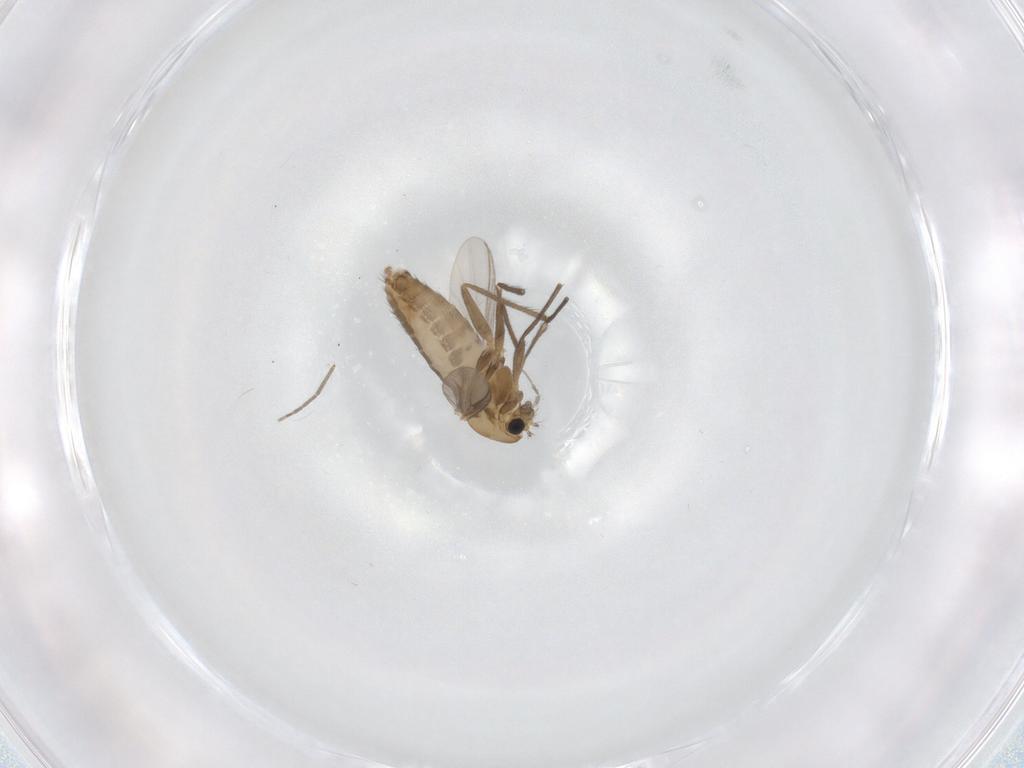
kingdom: Animalia
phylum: Arthropoda
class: Insecta
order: Diptera
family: Chironomidae
